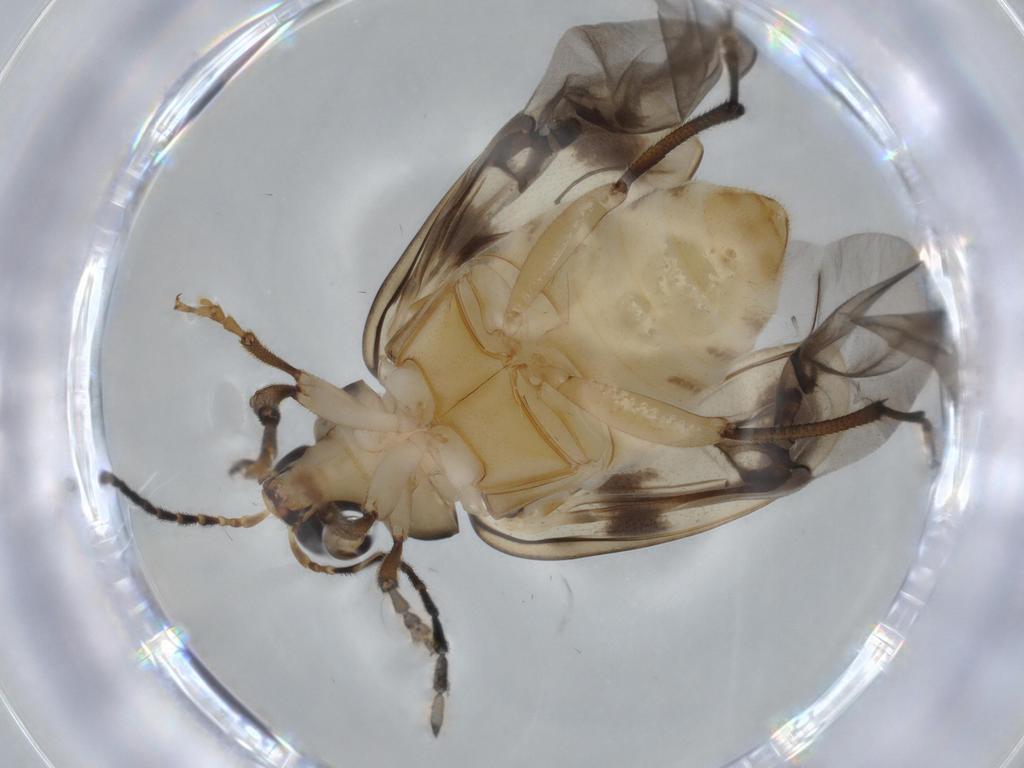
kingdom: Animalia
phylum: Arthropoda
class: Insecta
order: Coleoptera
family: Chrysomelidae
